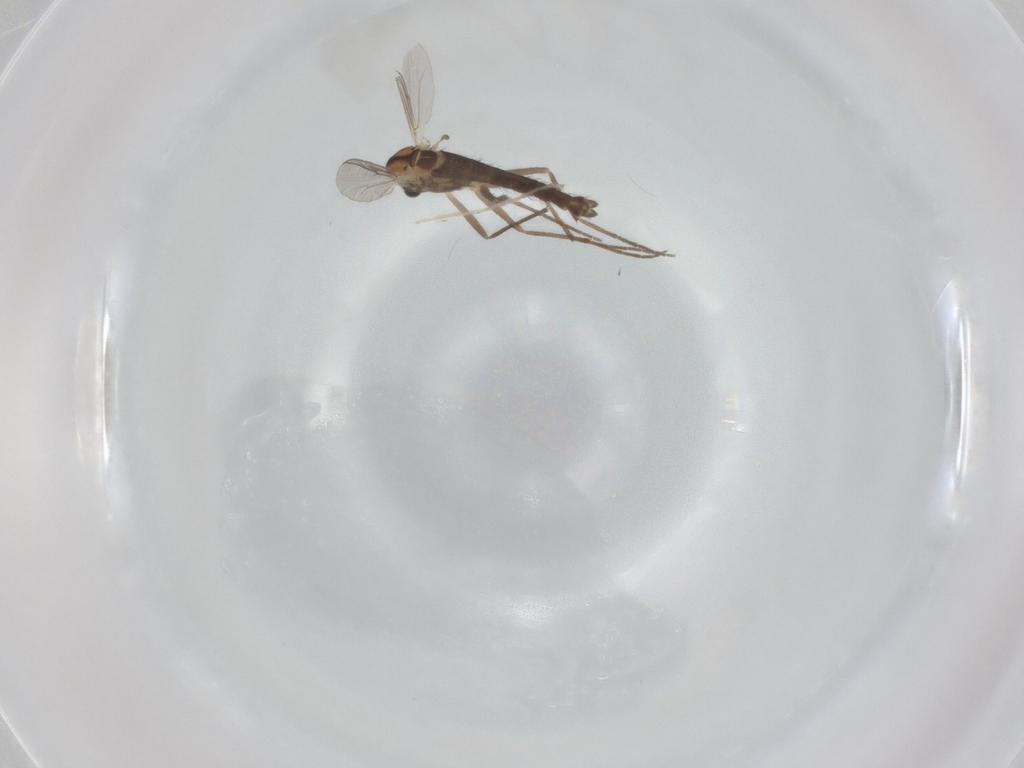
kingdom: Animalia
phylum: Arthropoda
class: Insecta
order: Diptera
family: Chironomidae
